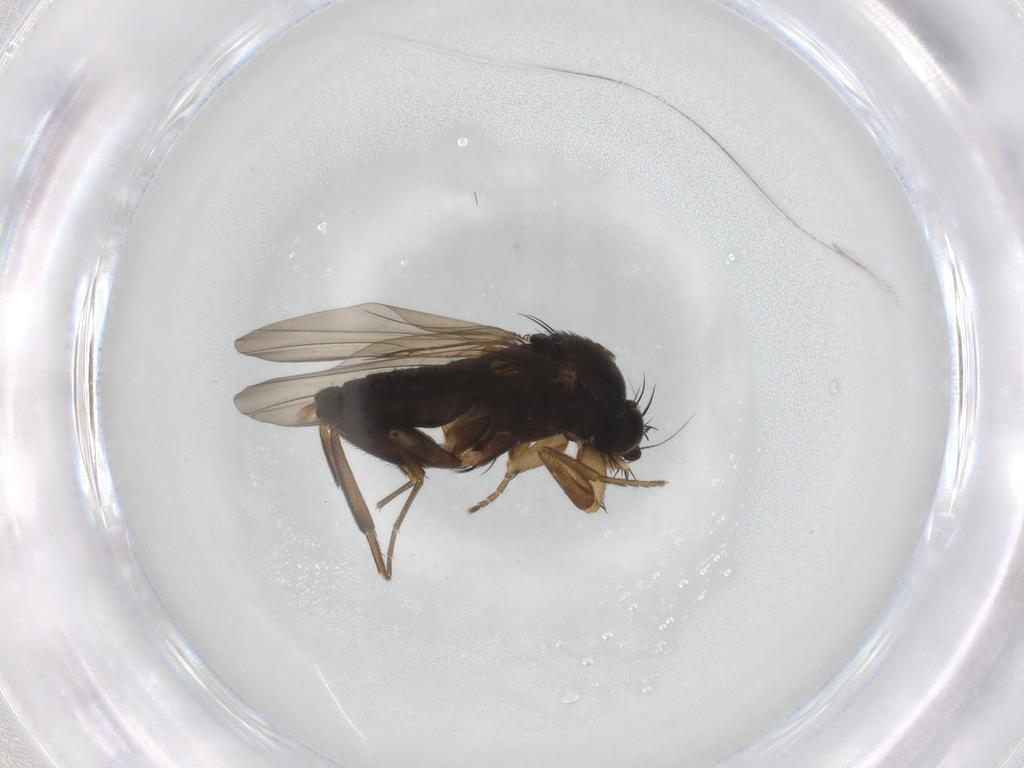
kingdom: Animalia
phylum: Arthropoda
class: Insecta
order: Diptera
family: Phoridae
